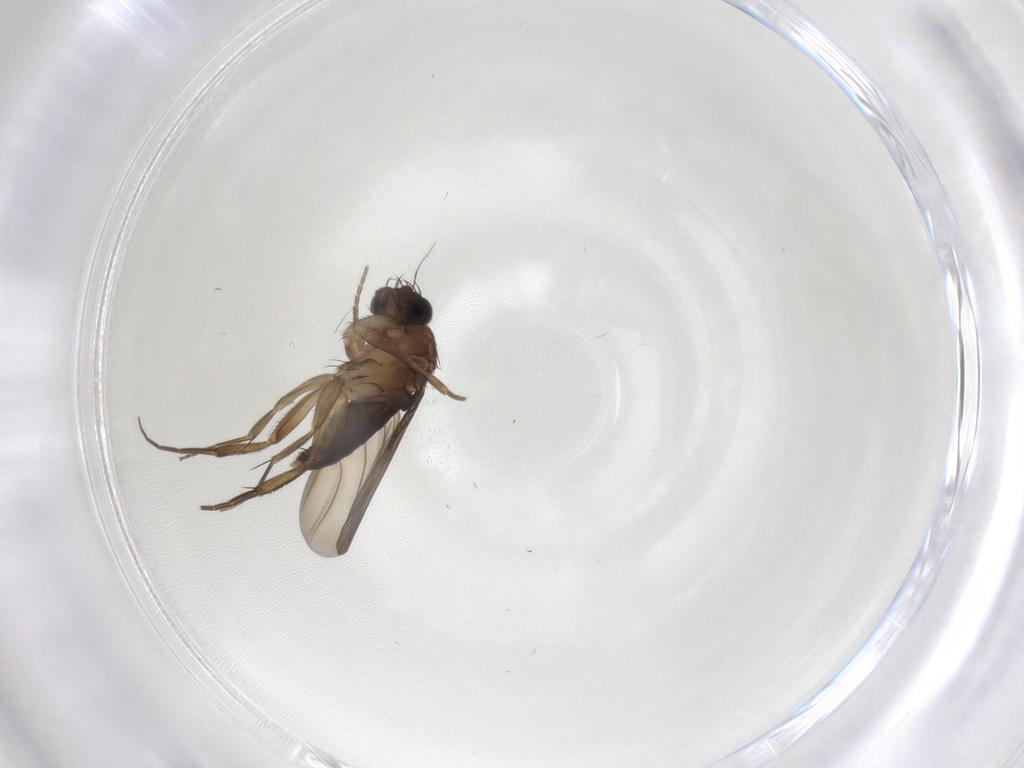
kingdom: Animalia
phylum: Arthropoda
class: Insecta
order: Diptera
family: Phoridae
